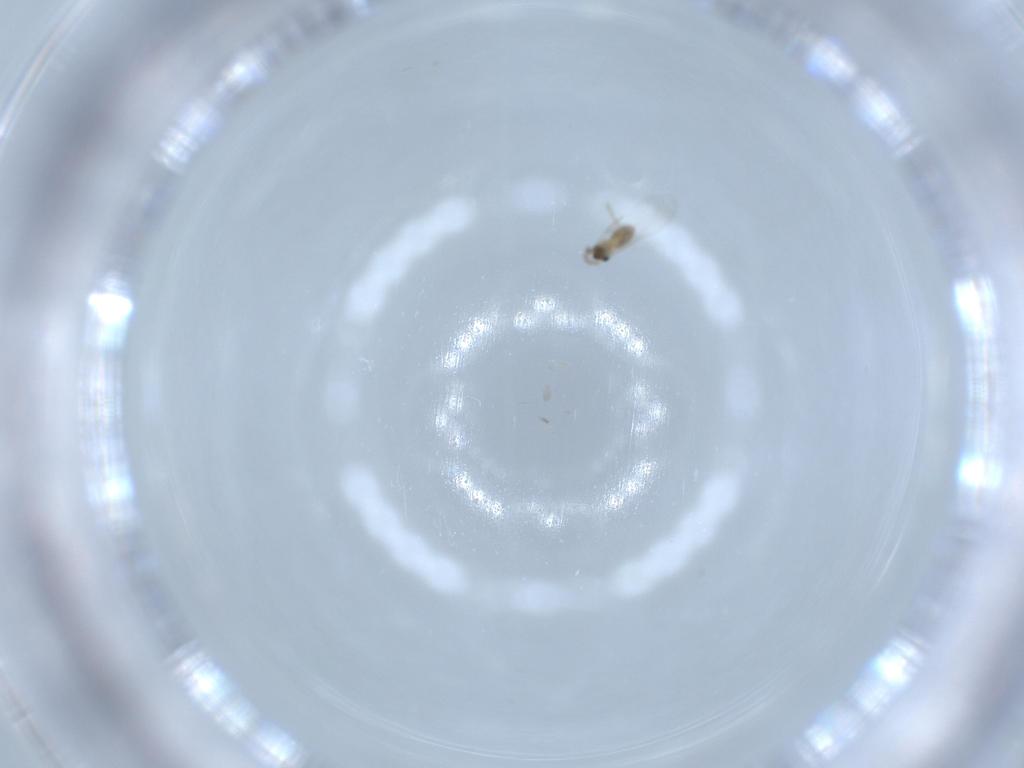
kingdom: Animalia
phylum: Arthropoda
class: Insecta
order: Diptera
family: Cecidomyiidae
